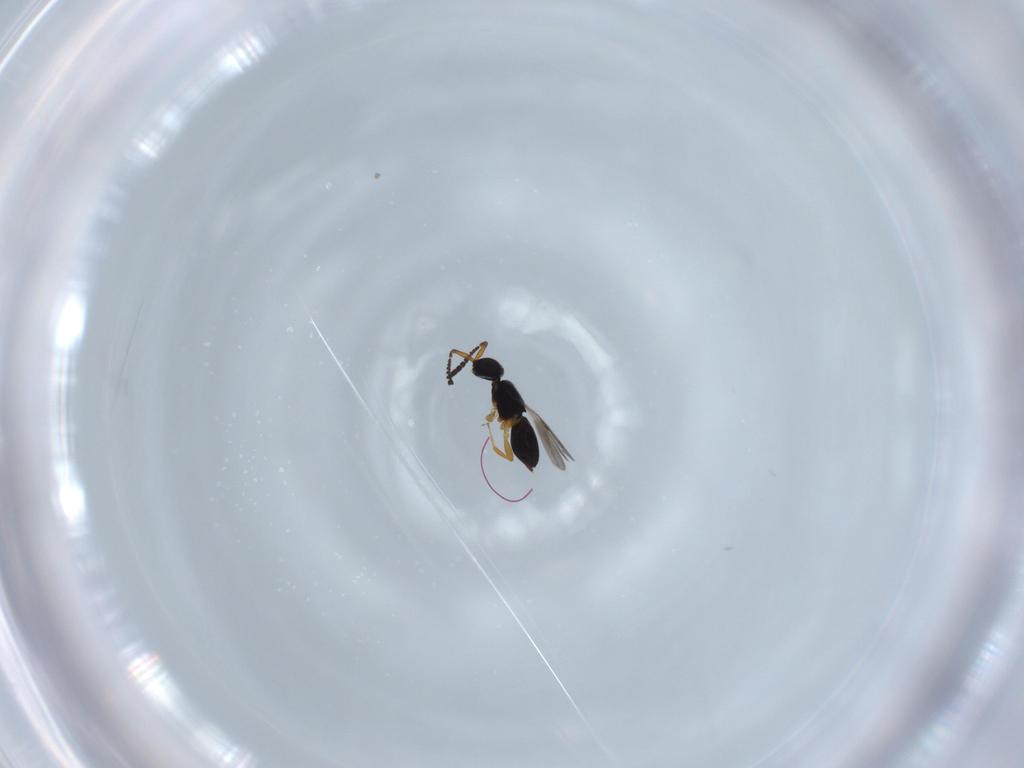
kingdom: Animalia
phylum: Arthropoda
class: Insecta
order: Hymenoptera
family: Ceraphronidae
